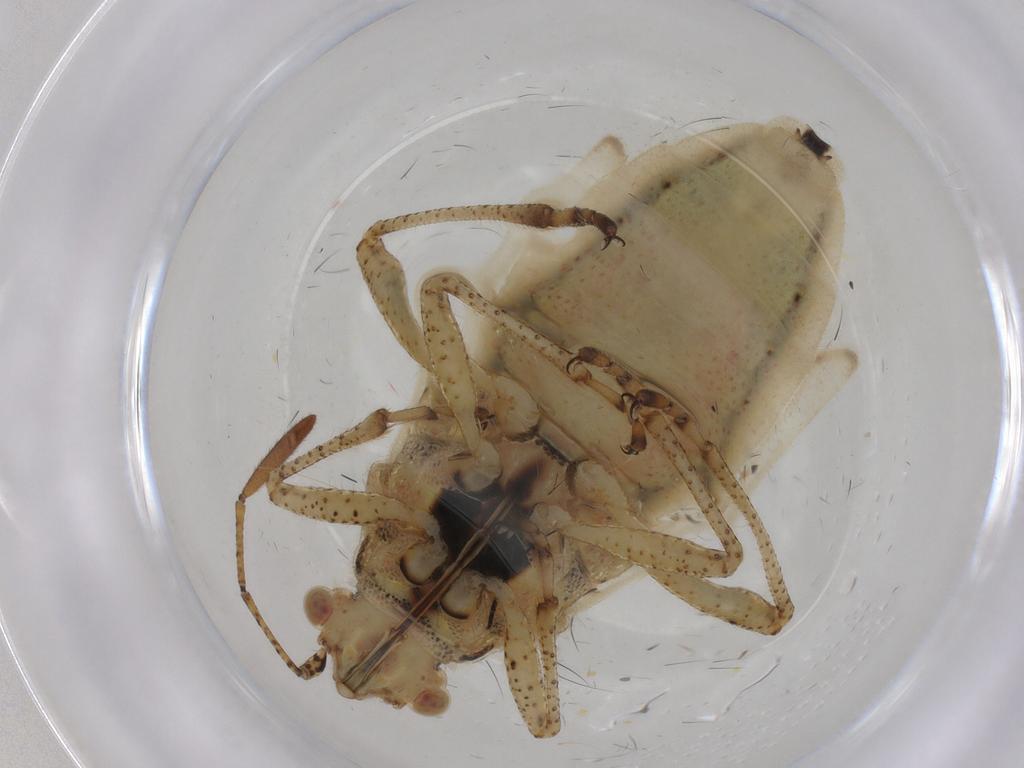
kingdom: Animalia
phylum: Arthropoda
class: Insecta
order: Hemiptera
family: Rhopalidae
